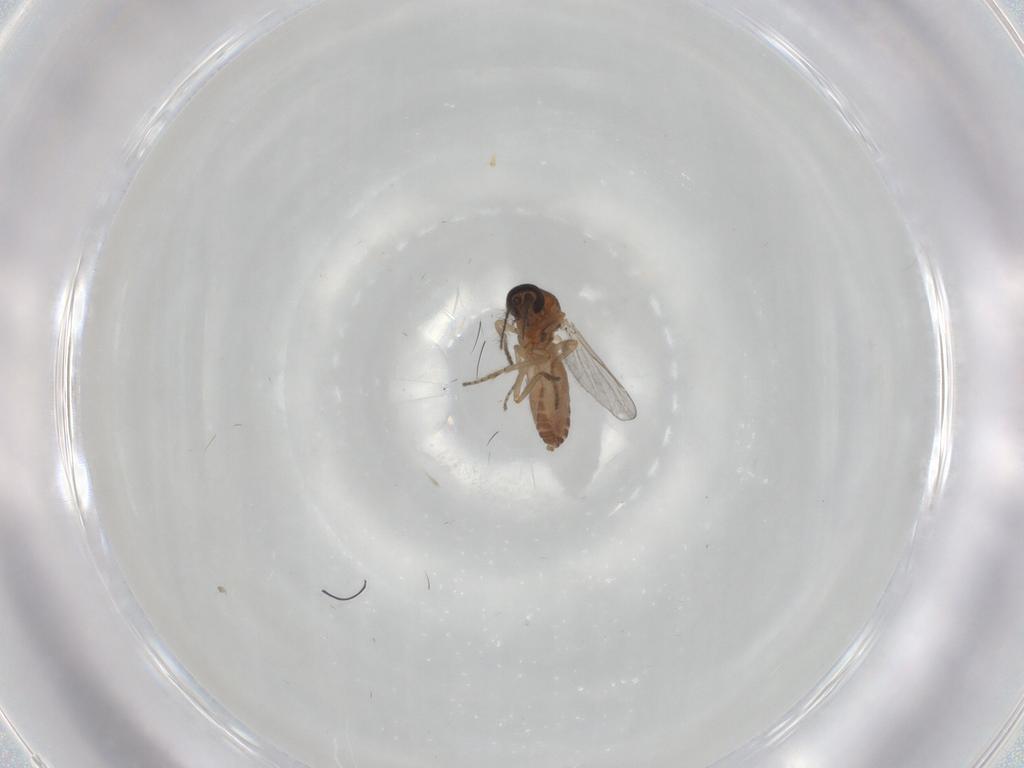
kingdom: Animalia
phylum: Arthropoda
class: Insecta
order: Diptera
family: Ceratopogonidae
